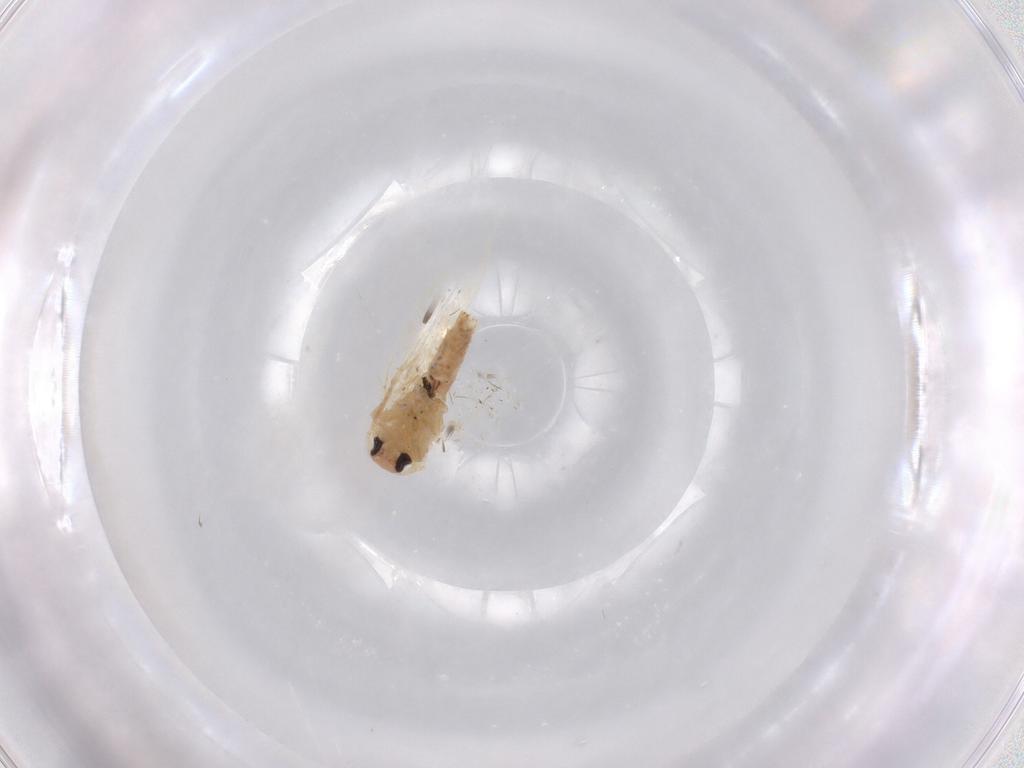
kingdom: Animalia
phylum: Arthropoda
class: Insecta
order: Lepidoptera
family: Bucculatricidae
